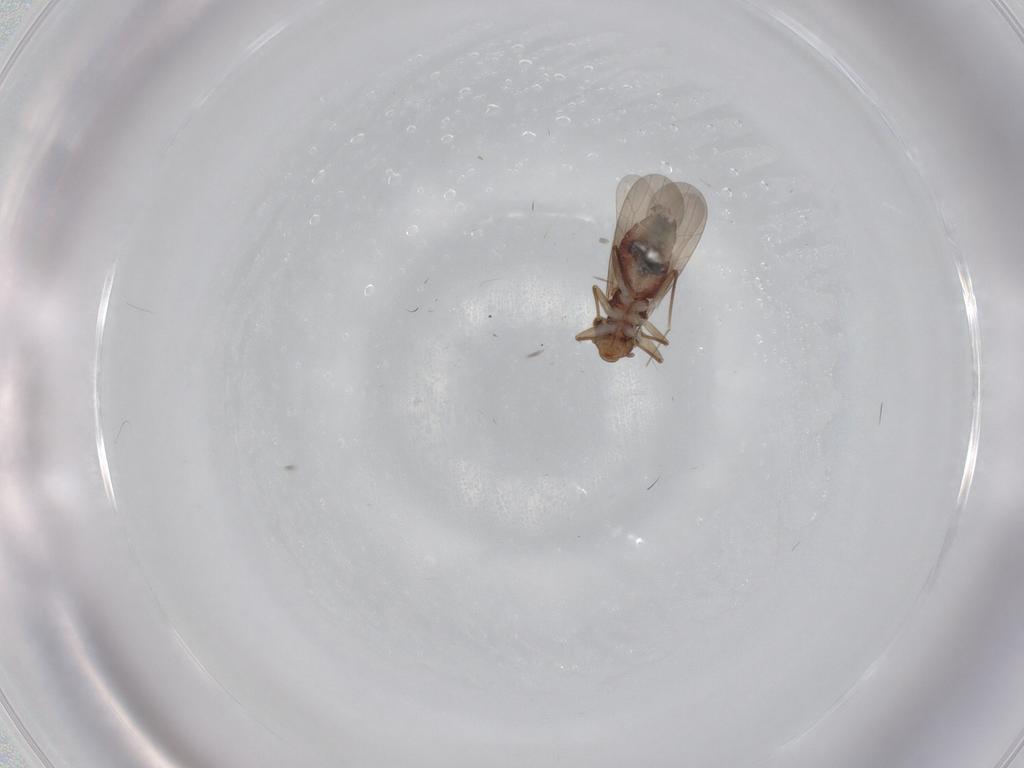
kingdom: Animalia
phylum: Arthropoda
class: Insecta
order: Psocodea
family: Lepidopsocidae
